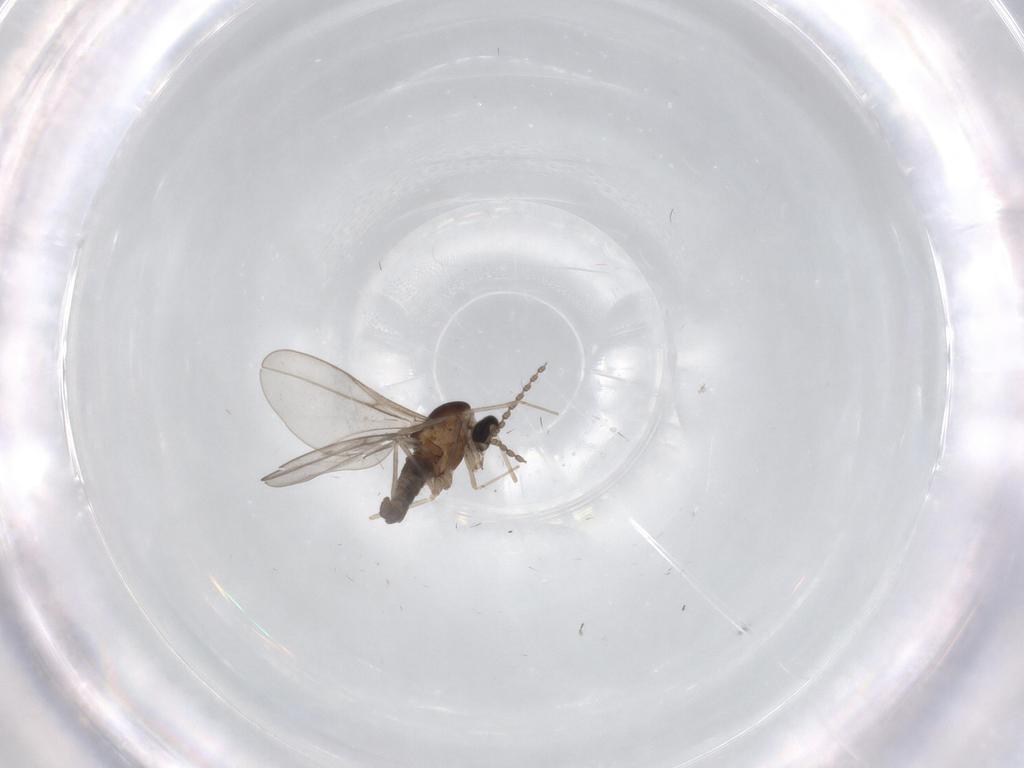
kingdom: Animalia
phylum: Arthropoda
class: Insecta
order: Diptera
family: Cecidomyiidae
